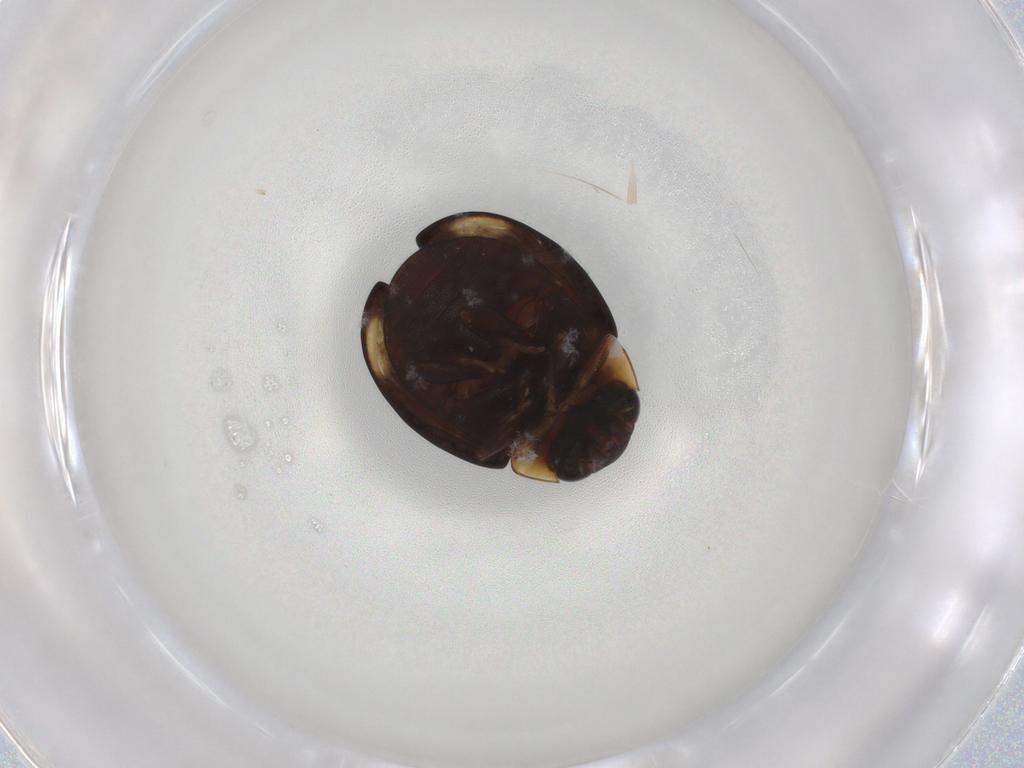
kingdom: Animalia
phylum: Arthropoda
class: Insecta
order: Coleoptera
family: Coccinellidae
